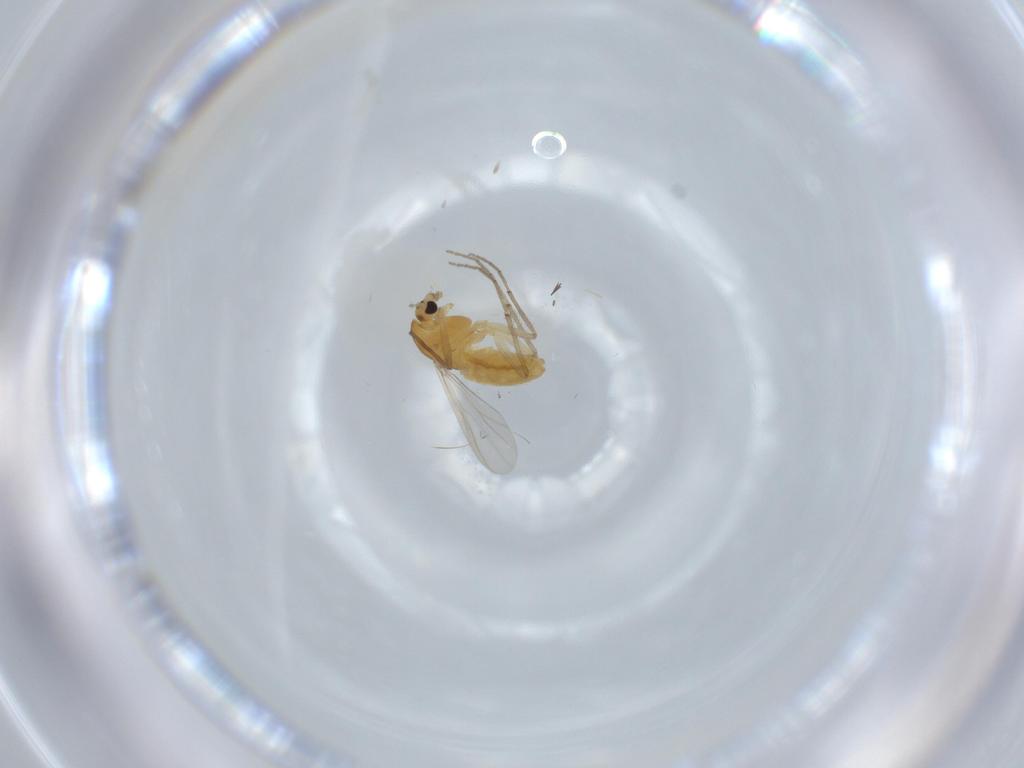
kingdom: Animalia
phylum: Arthropoda
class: Insecta
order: Diptera
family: Chironomidae
